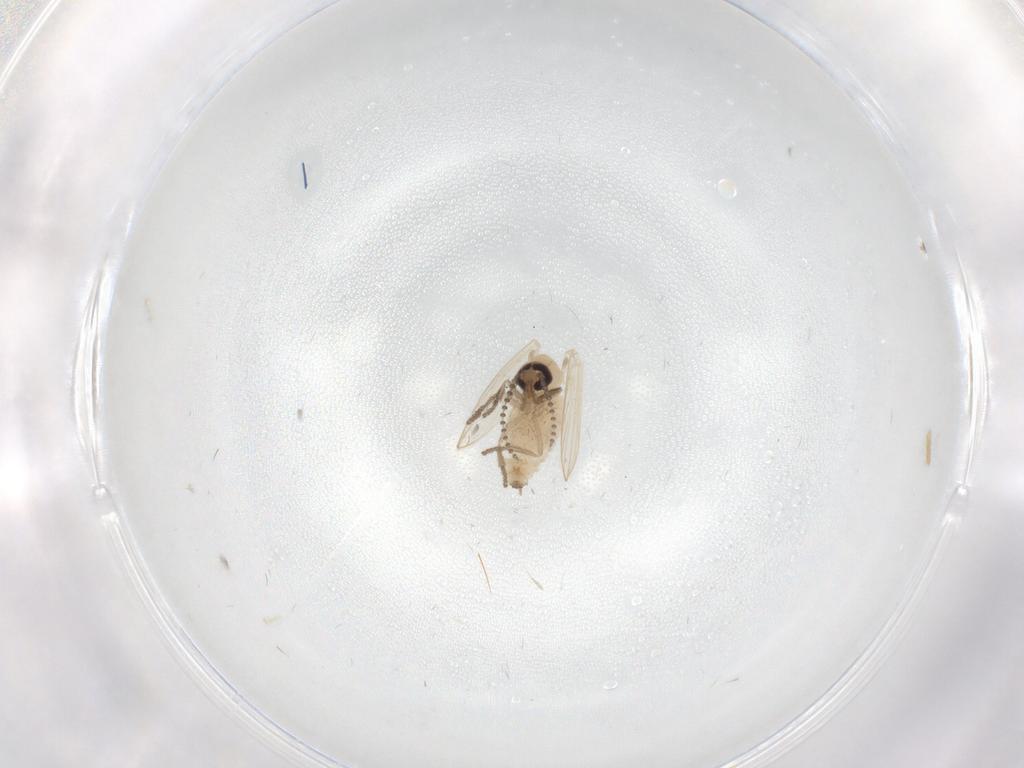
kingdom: Animalia
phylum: Arthropoda
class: Insecta
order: Diptera
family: Psychodidae
